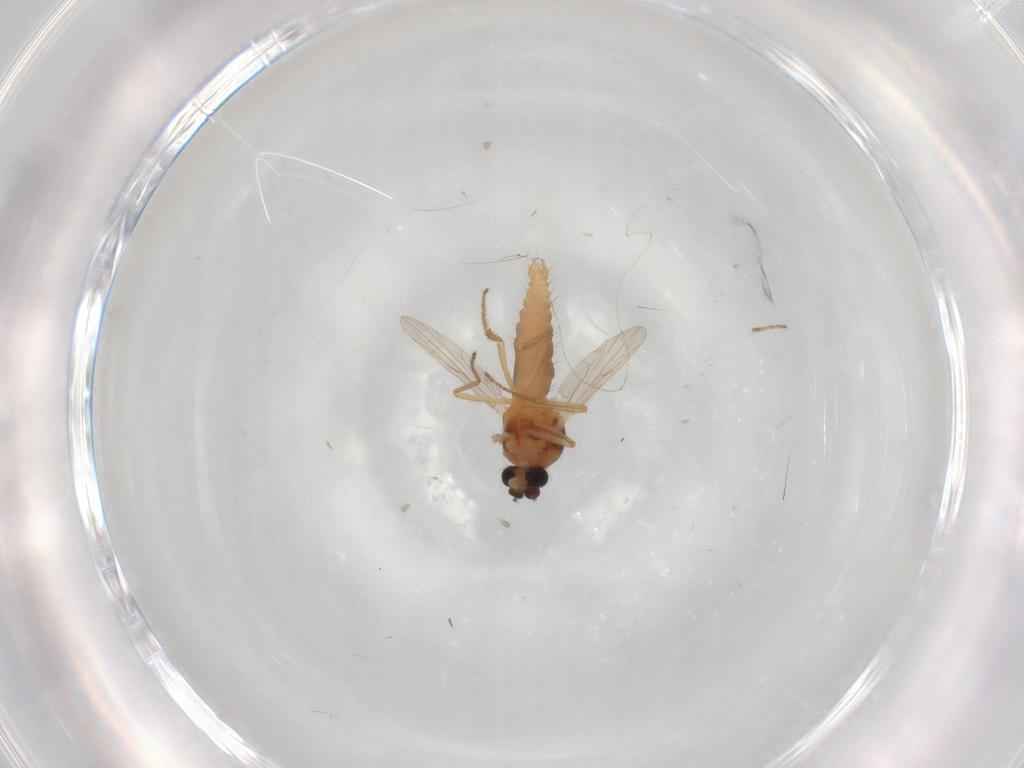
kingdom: Animalia
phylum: Arthropoda
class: Insecta
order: Diptera
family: Ceratopogonidae
